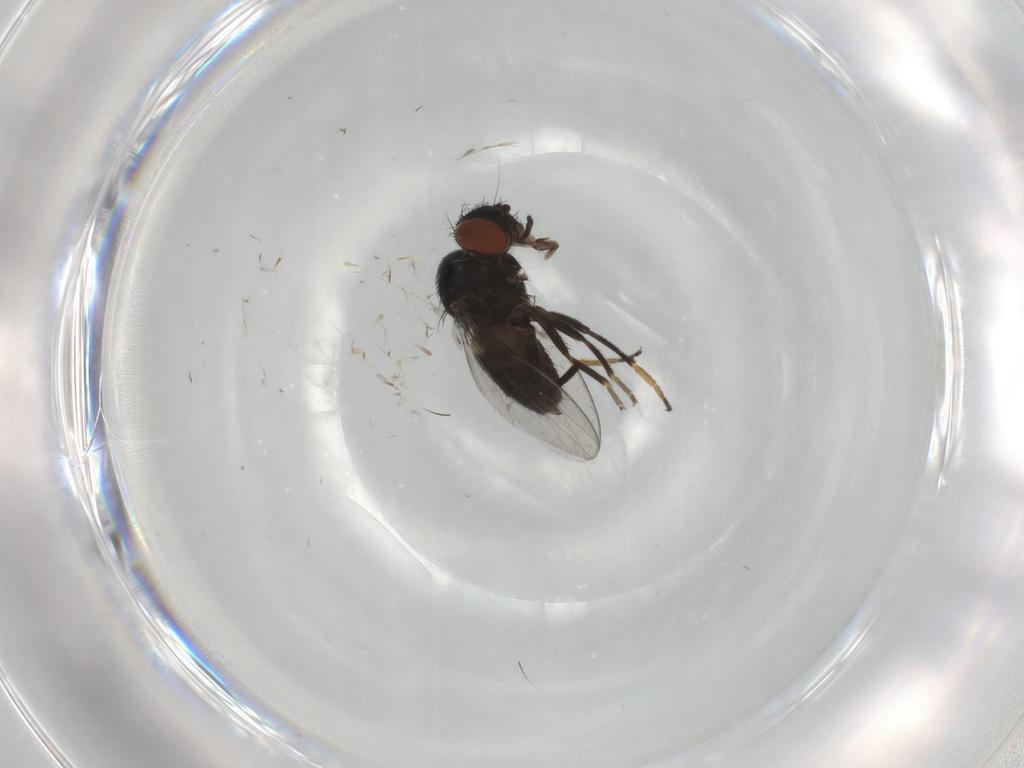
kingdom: Animalia
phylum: Arthropoda
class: Insecta
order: Diptera
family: Milichiidae
